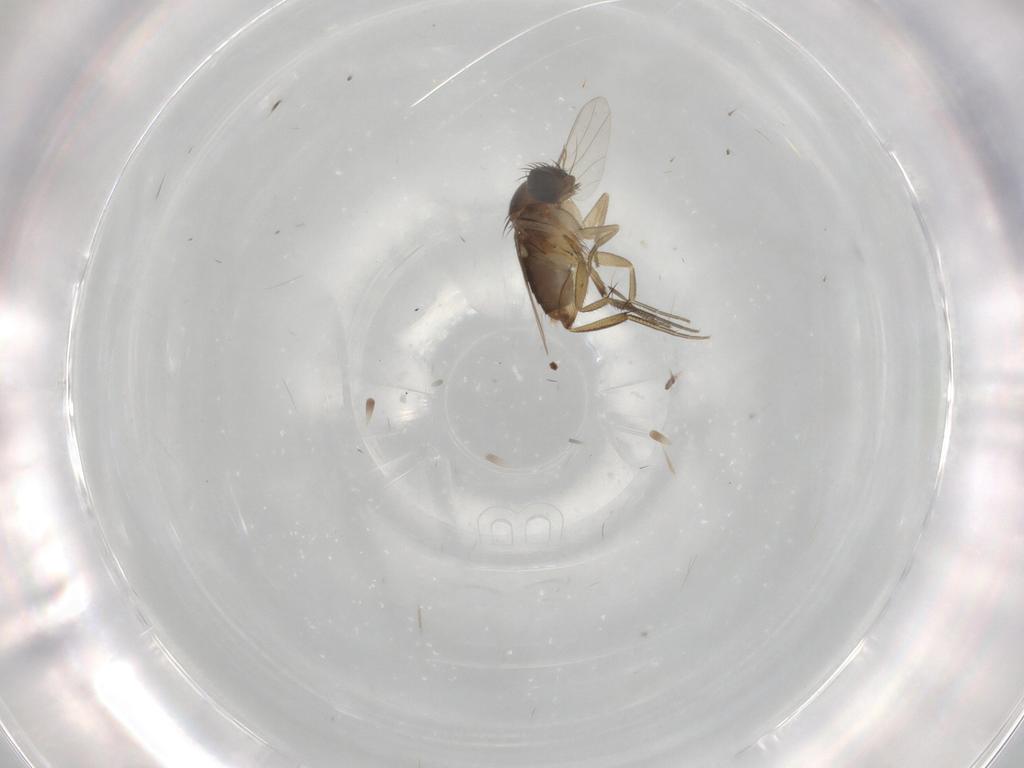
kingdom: Animalia
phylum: Arthropoda
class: Insecta
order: Diptera
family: Phoridae
